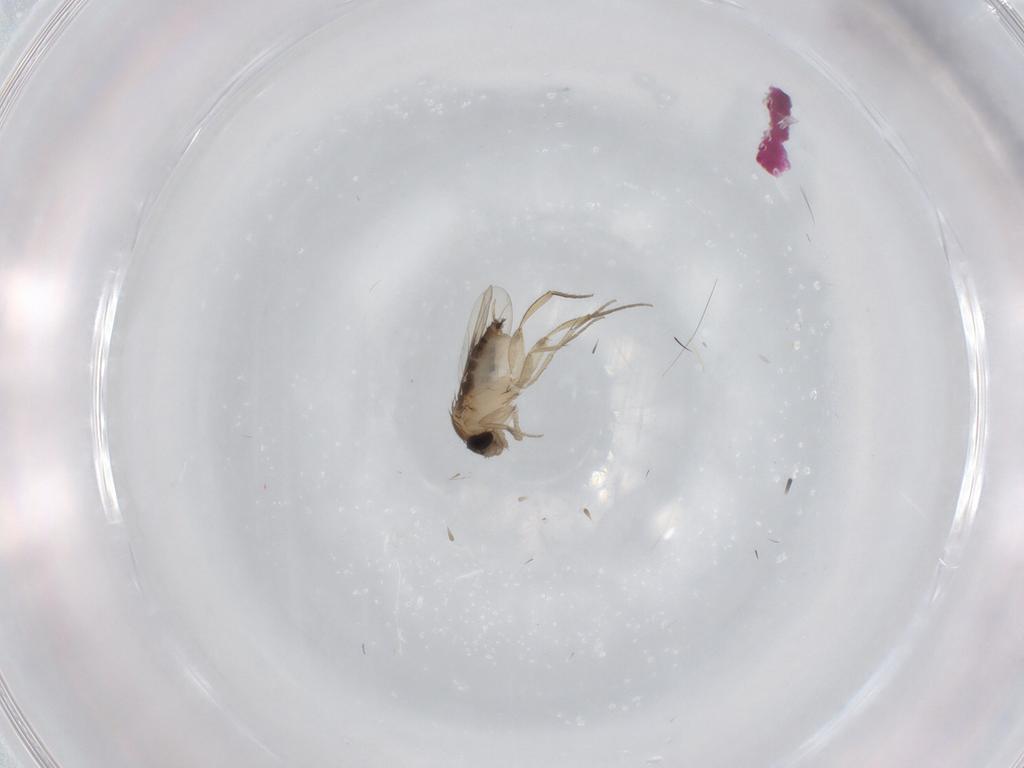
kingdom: Animalia
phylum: Arthropoda
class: Insecta
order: Diptera
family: Phoridae
